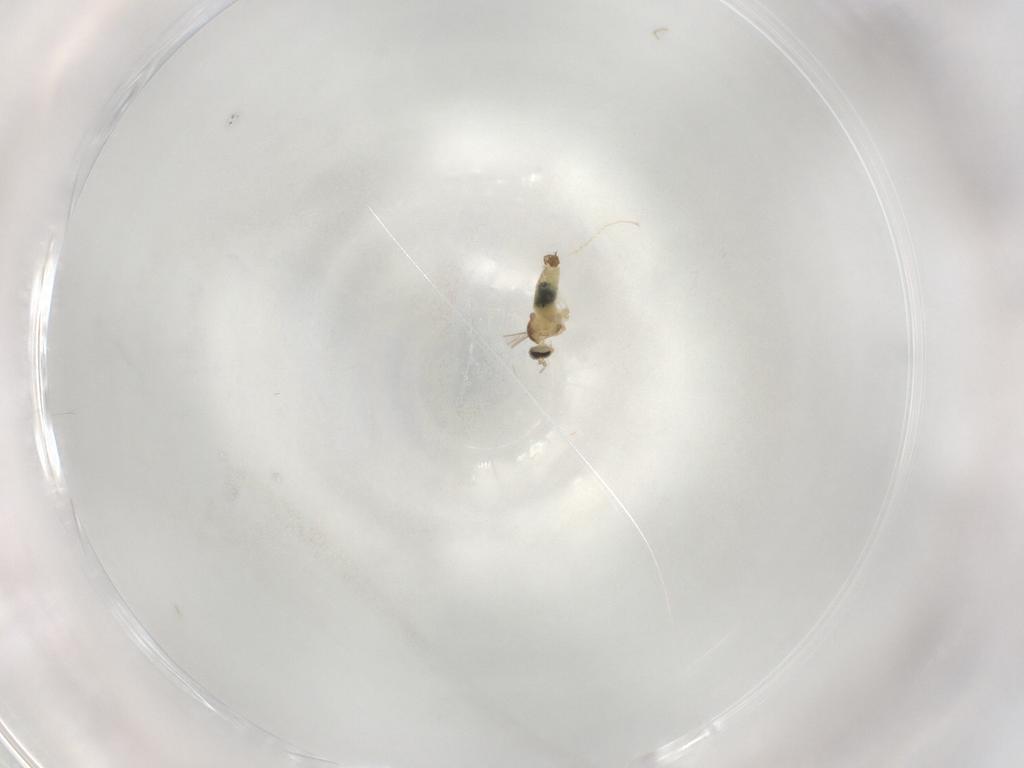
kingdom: Animalia
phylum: Arthropoda
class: Insecta
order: Diptera
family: Cecidomyiidae
